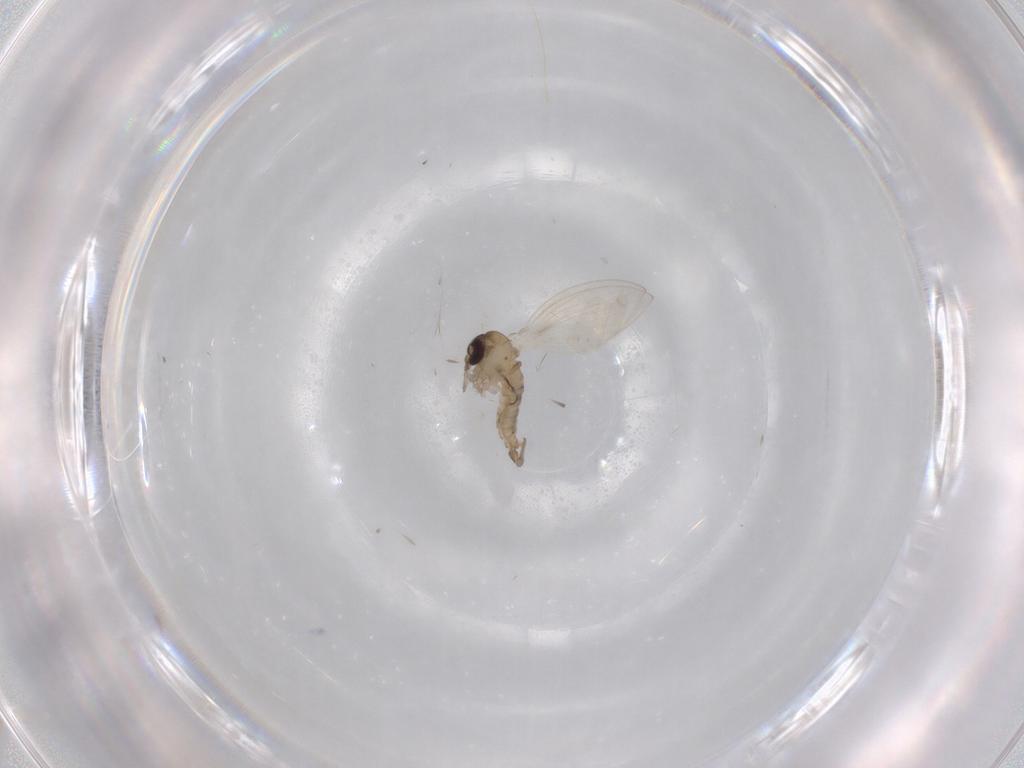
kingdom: Animalia
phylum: Arthropoda
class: Insecta
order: Diptera
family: Psychodidae
